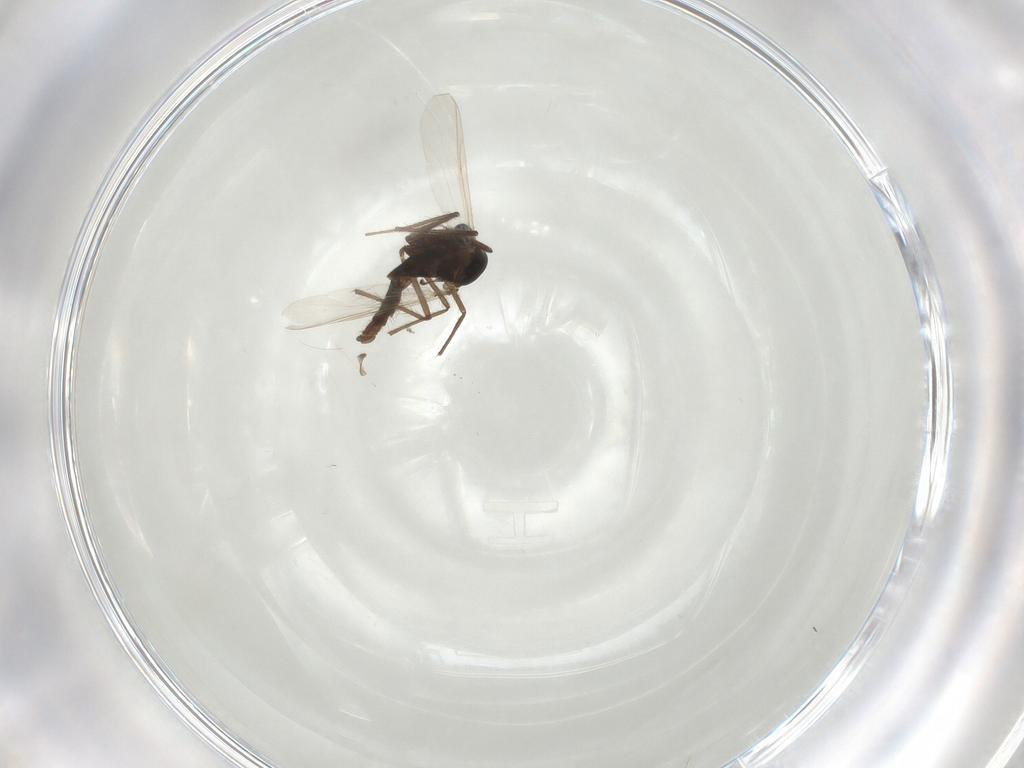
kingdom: Animalia
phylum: Arthropoda
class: Insecta
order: Diptera
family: Chironomidae
